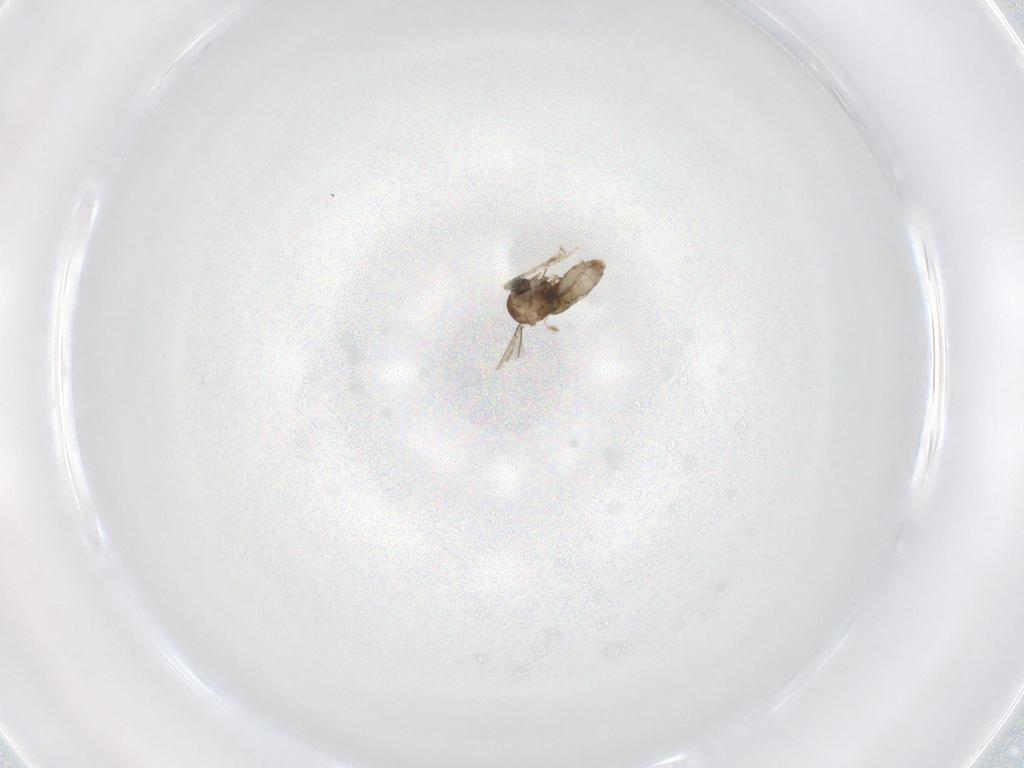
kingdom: Animalia
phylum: Arthropoda
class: Insecta
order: Diptera
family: Cecidomyiidae
